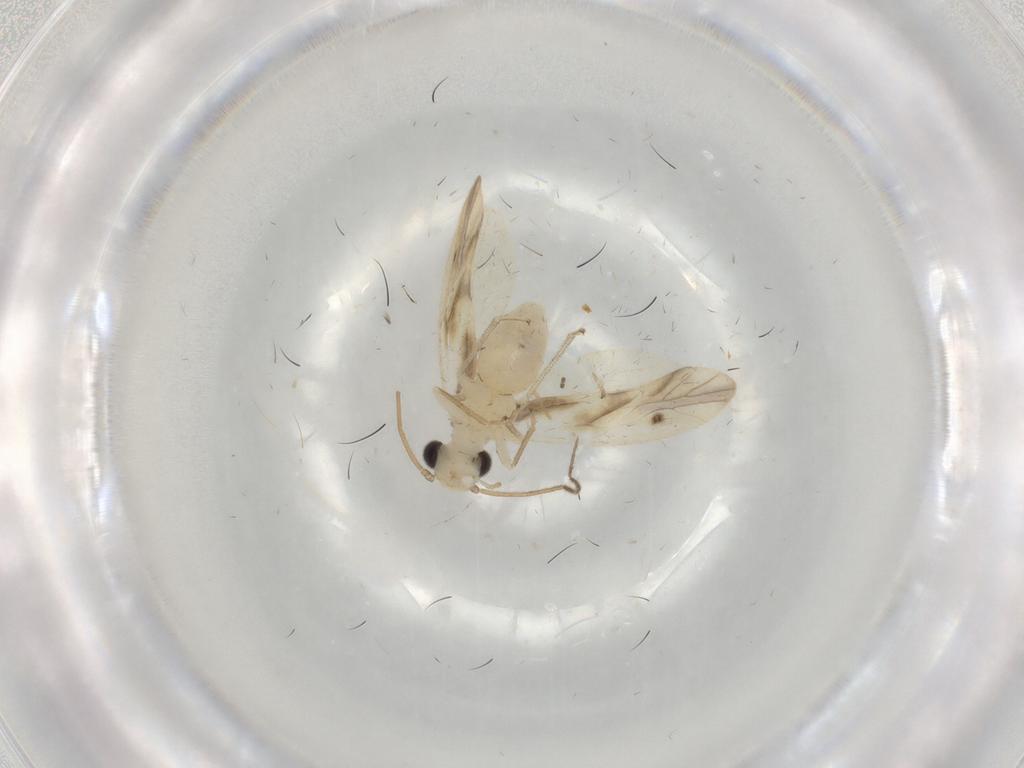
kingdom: Animalia
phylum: Arthropoda
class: Insecta
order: Psocodea
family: Caeciliusidae
